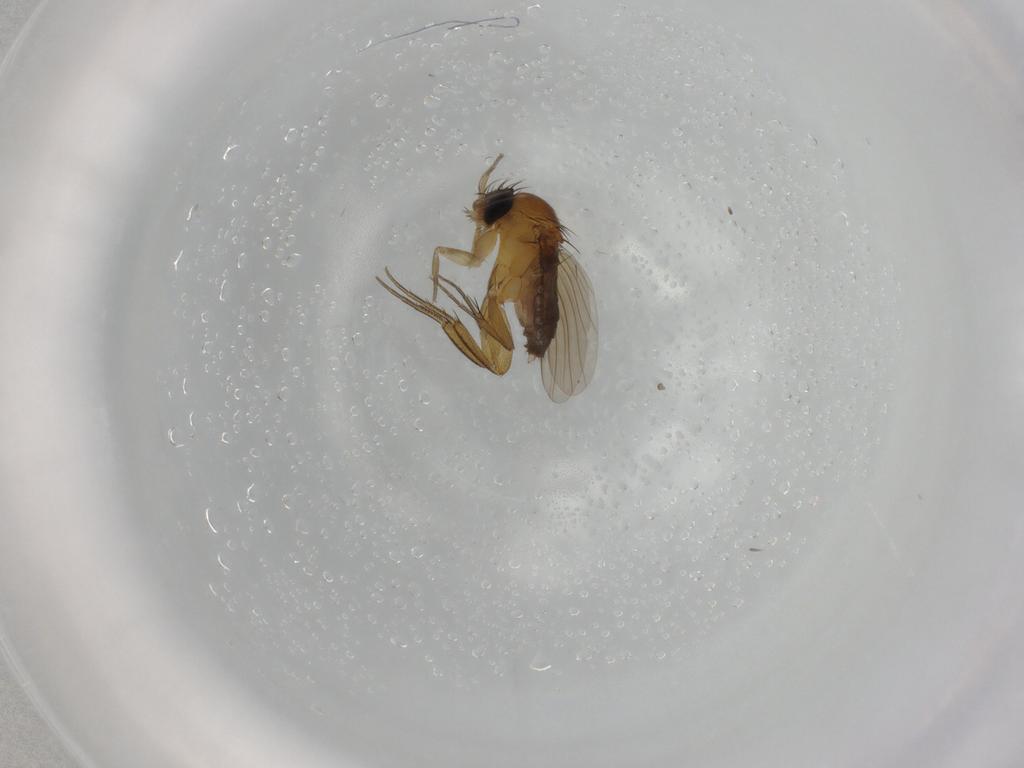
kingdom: Animalia
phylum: Arthropoda
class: Insecta
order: Diptera
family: Phoridae
